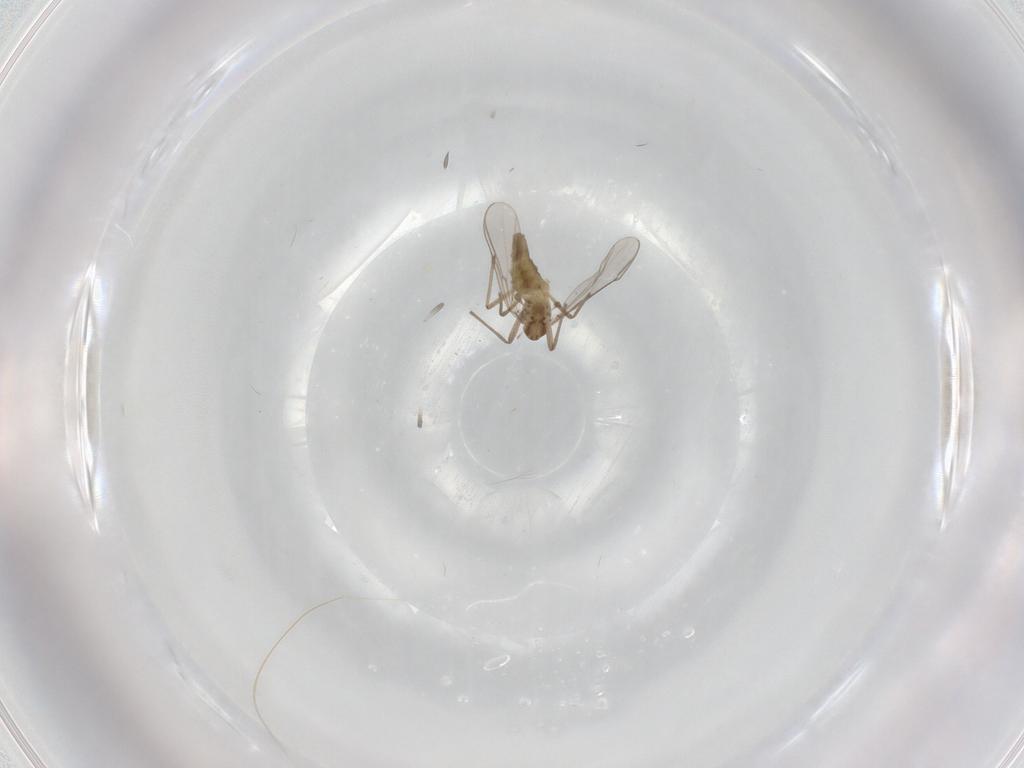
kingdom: Animalia
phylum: Arthropoda
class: Insecta
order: Diptera
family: Chironomidae
